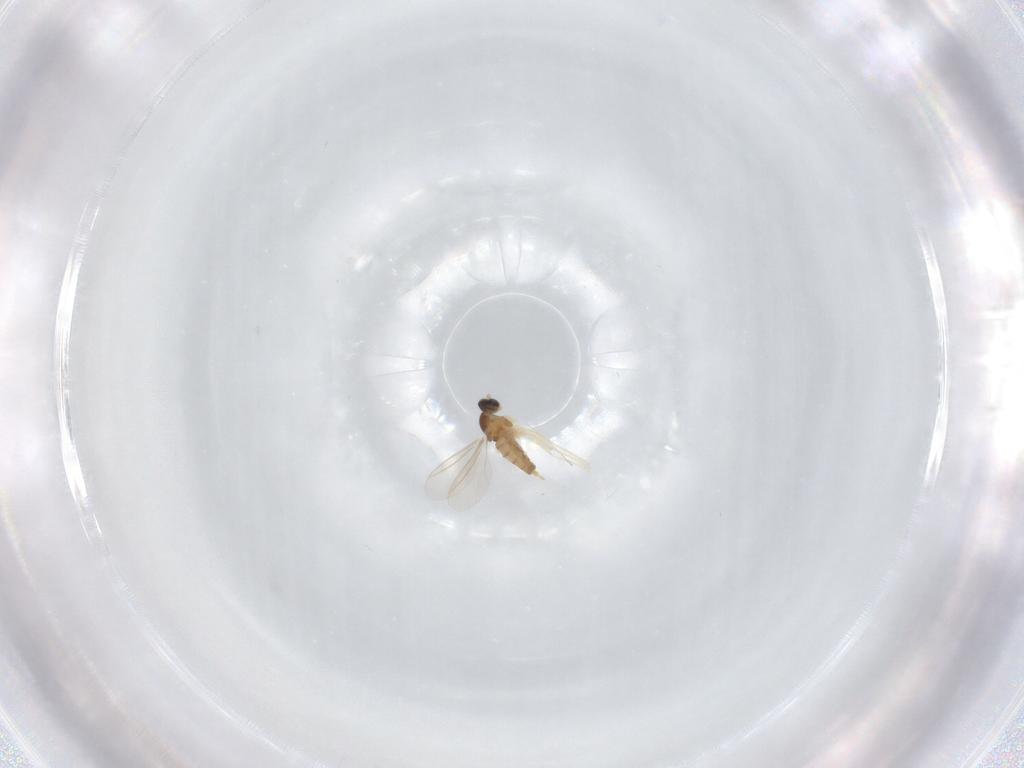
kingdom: Animalia
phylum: Arthropoda
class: Insecta
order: Diptera
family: Cecidomyiidae
